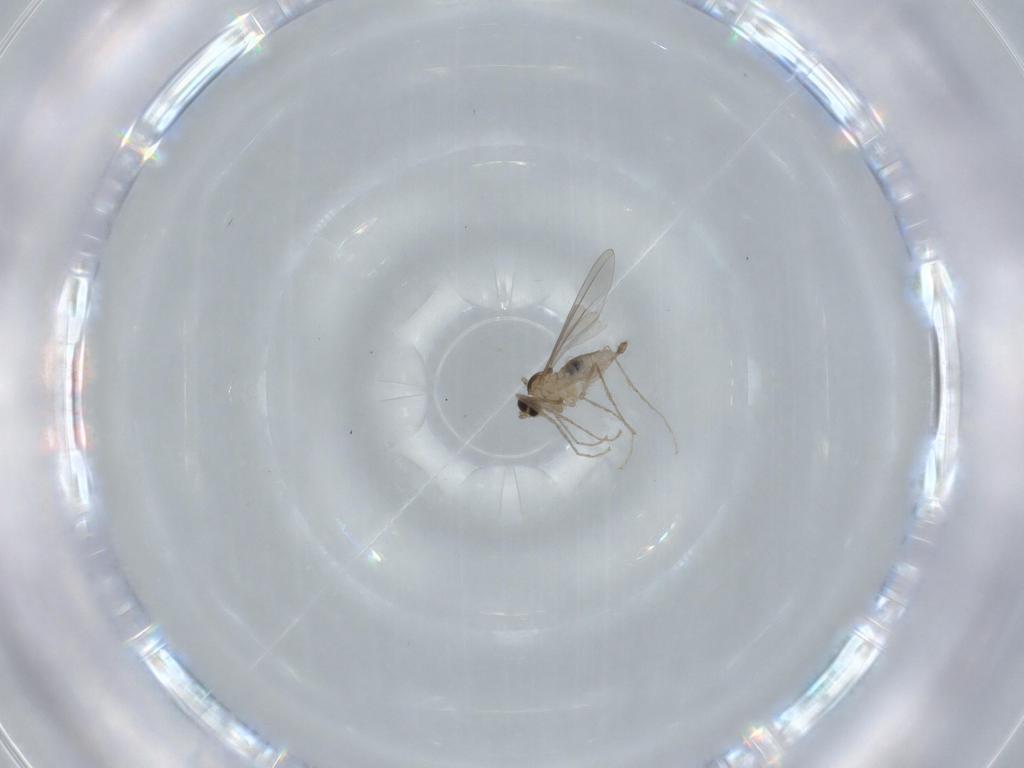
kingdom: Animalia
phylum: Arthropoda
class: Insecta
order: Diptera
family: Cecidomyiidae
